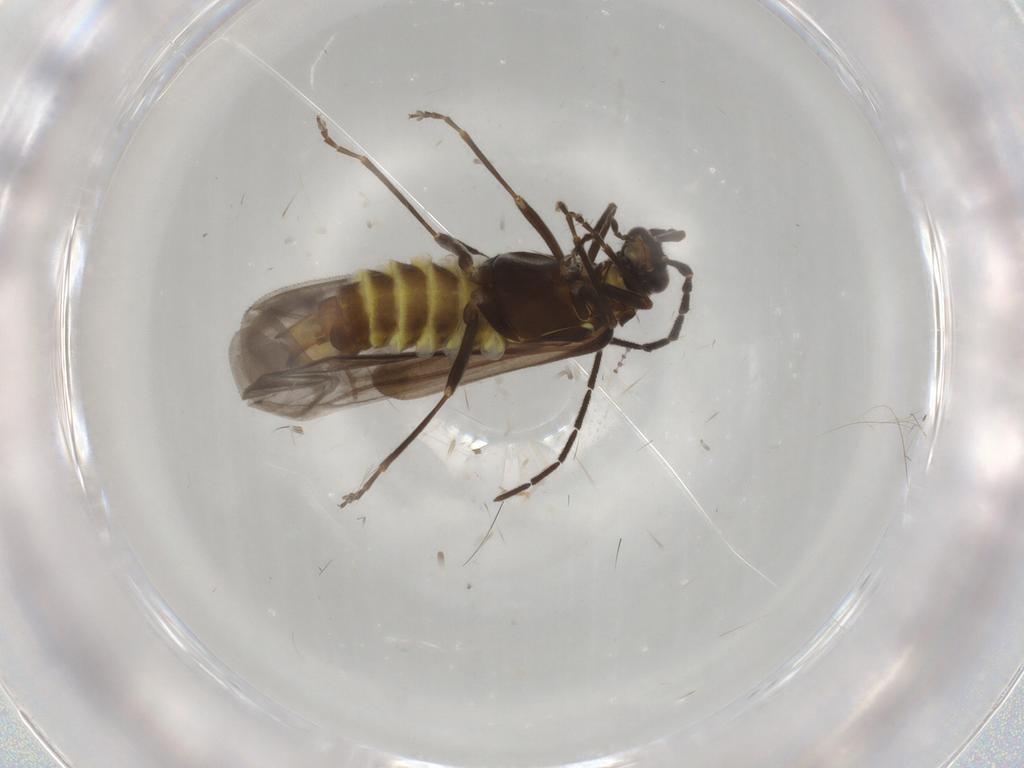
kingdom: Animalia
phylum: Arthropoda
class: Insecta
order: Coleoptera
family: Cantharidae
